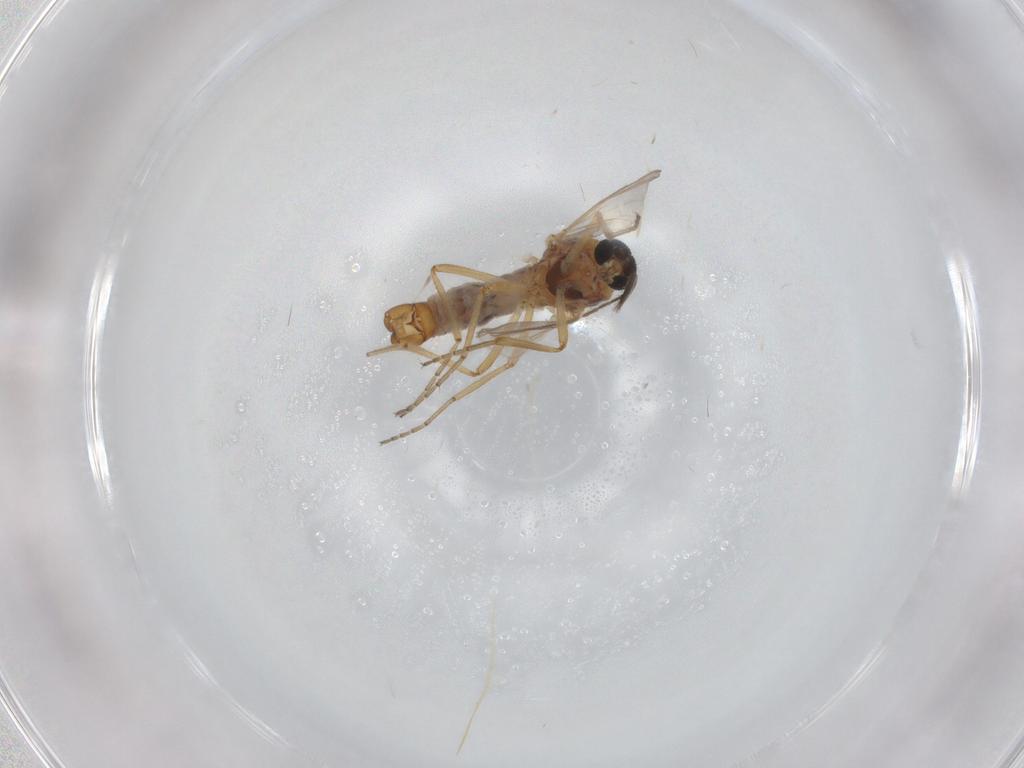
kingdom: Animalia
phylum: Arthropoda
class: Insecta
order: Diptera
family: Ceratopogonidae
